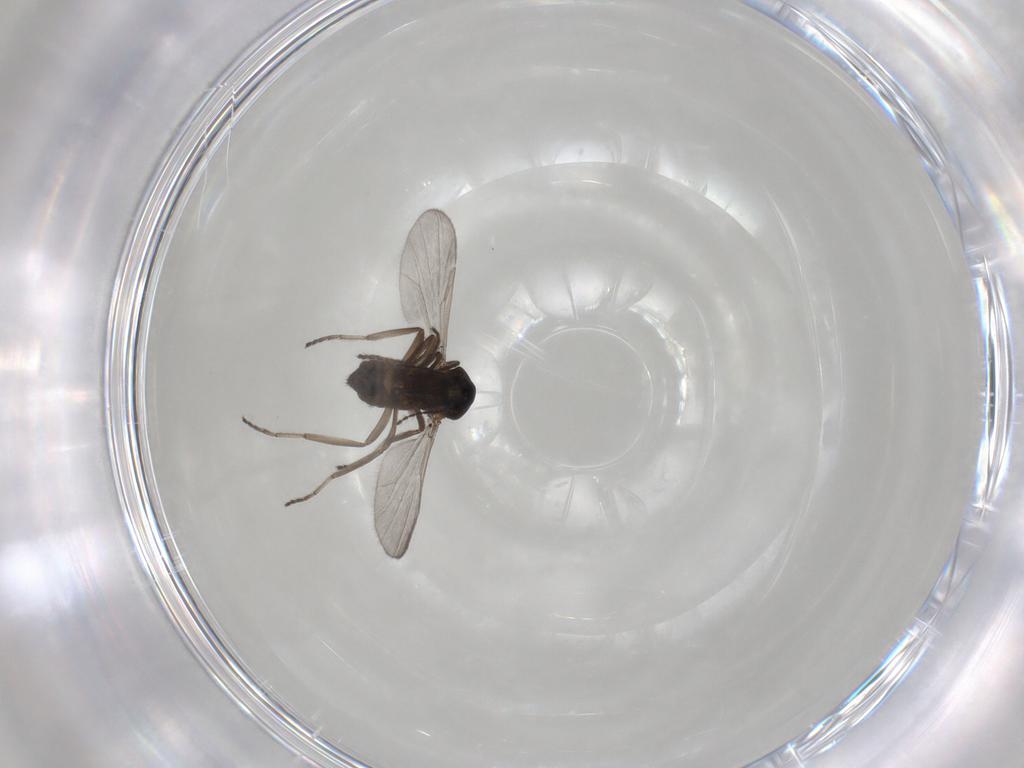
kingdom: Animalia
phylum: Arthropoda
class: Insecta
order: Diptera
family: Ceratopogonidae
